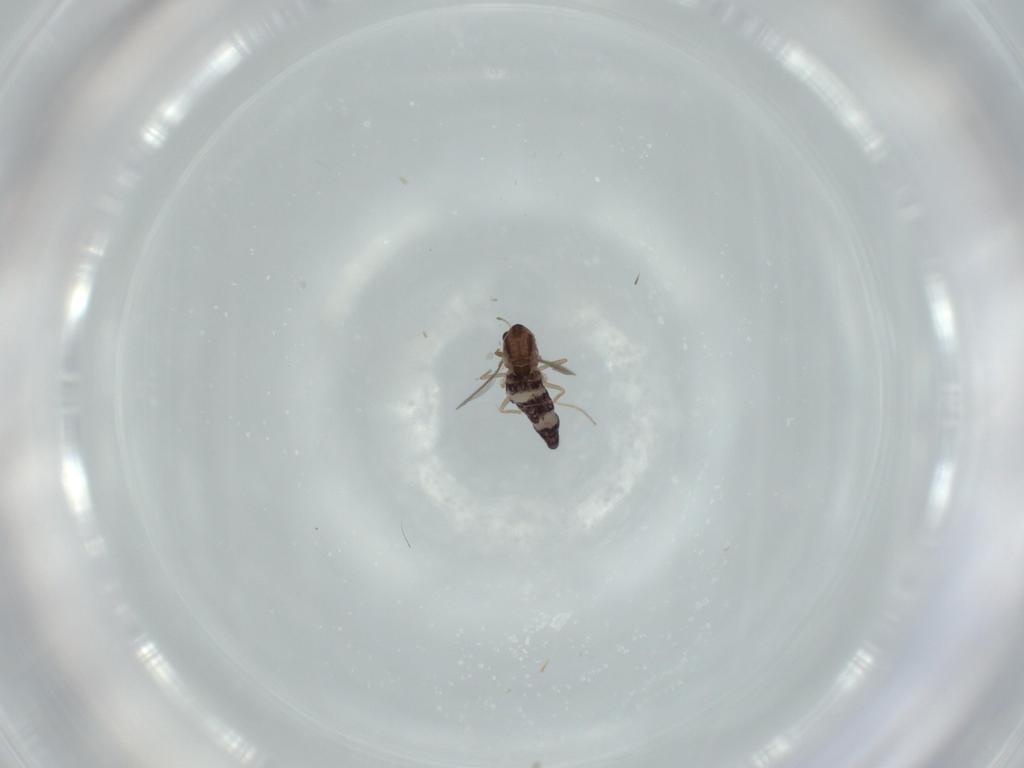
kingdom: Animalia
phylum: Arthropoda
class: Insecta
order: Diptera
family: Chironomidae
